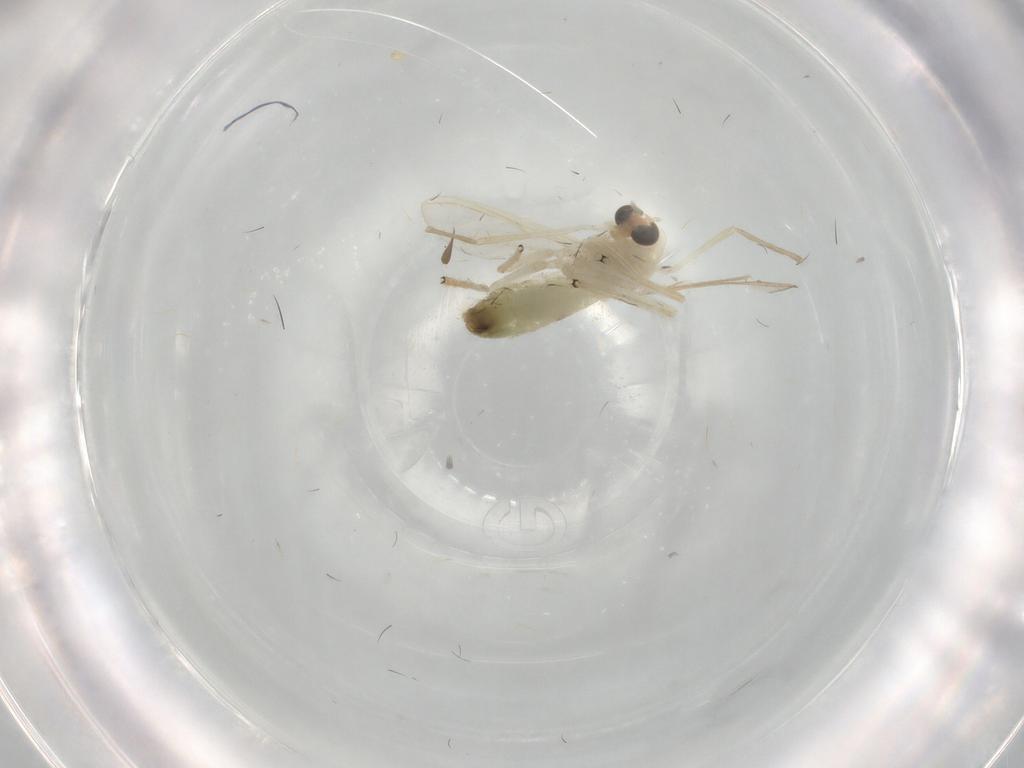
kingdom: Animalia
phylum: Arthropoda
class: Insecta
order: Diptera
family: Chironomidae
